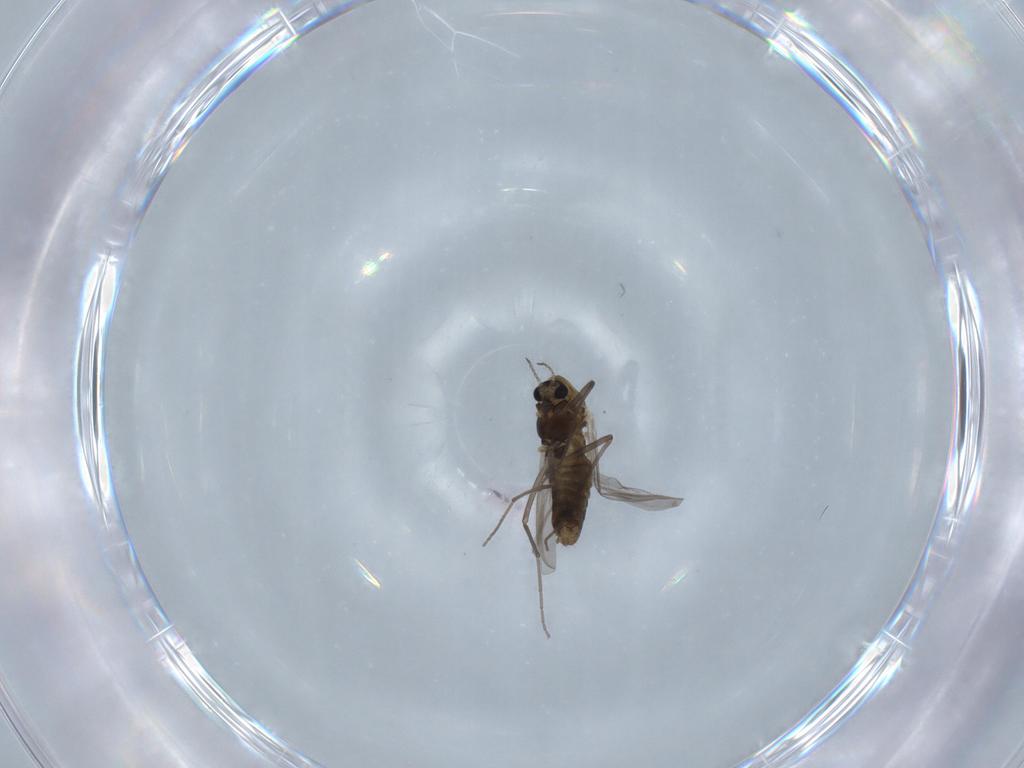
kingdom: Animalia
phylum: Arthropoda
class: Insecta
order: Diptera
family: Chironomidae
